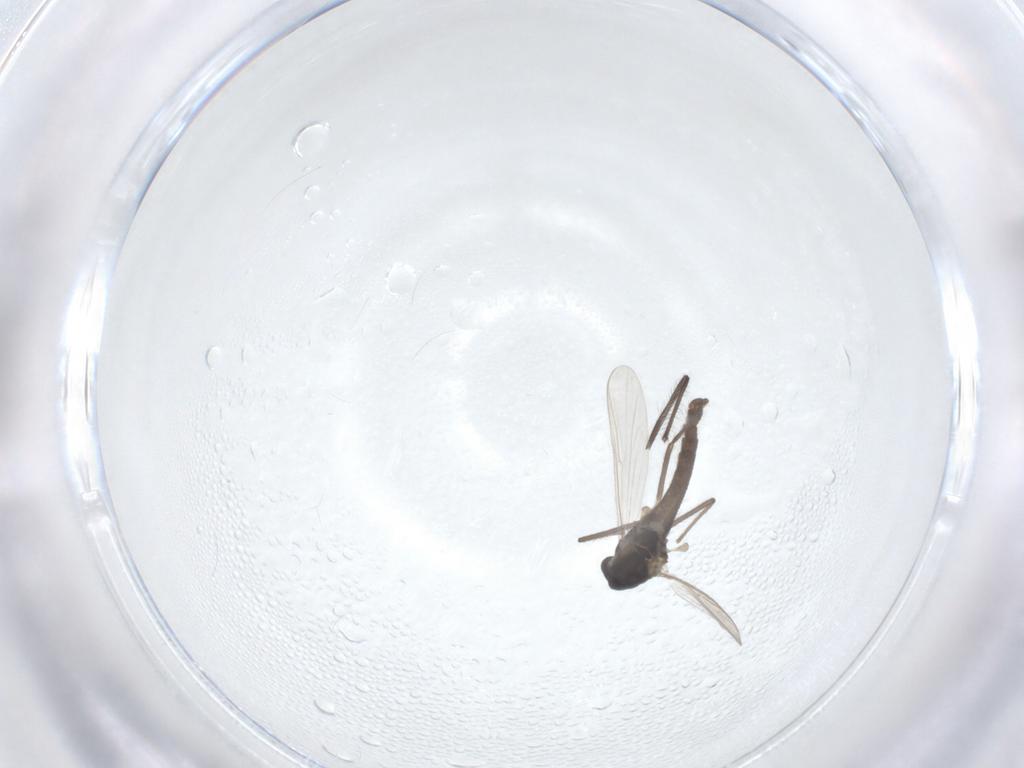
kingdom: Animalia
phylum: Arthropoda
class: Insecta
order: Diptera
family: Chironomidae
